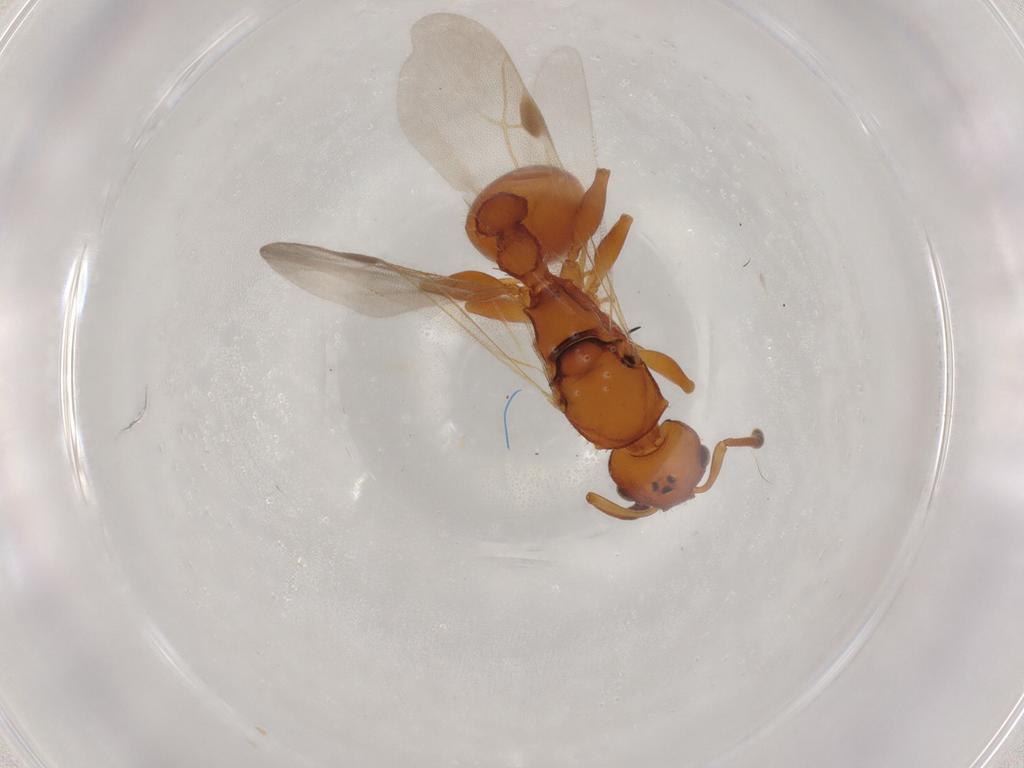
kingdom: Animalia
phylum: Arthropoda
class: Insecta
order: Hymenoptera
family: Formicidae
